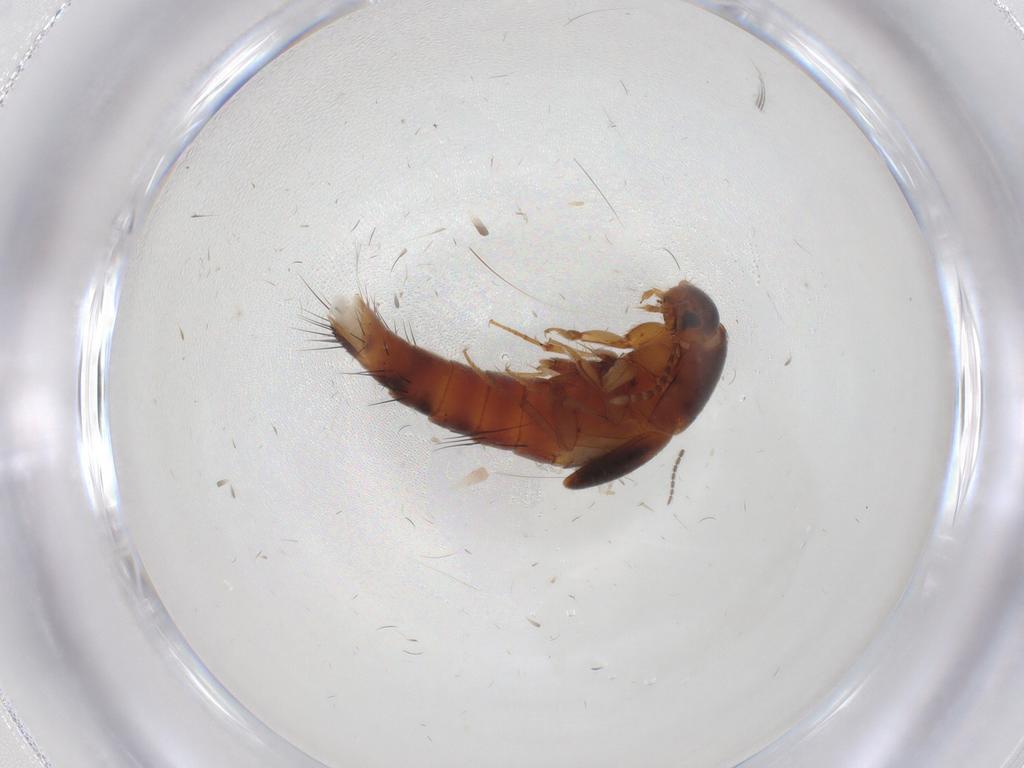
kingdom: Animalia
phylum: Arthropoda
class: Insecta
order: Coleoptera
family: Staphylinidae
